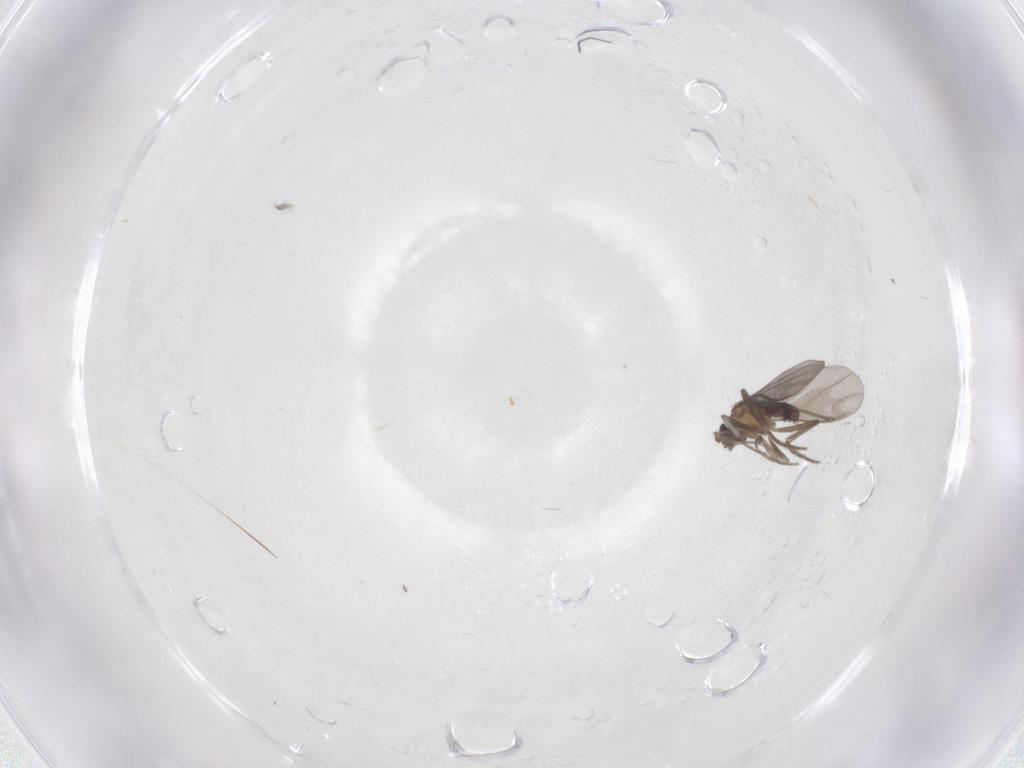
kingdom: Animalia
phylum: Arthropoda
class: Insecta
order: Diptera
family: Phoridae
